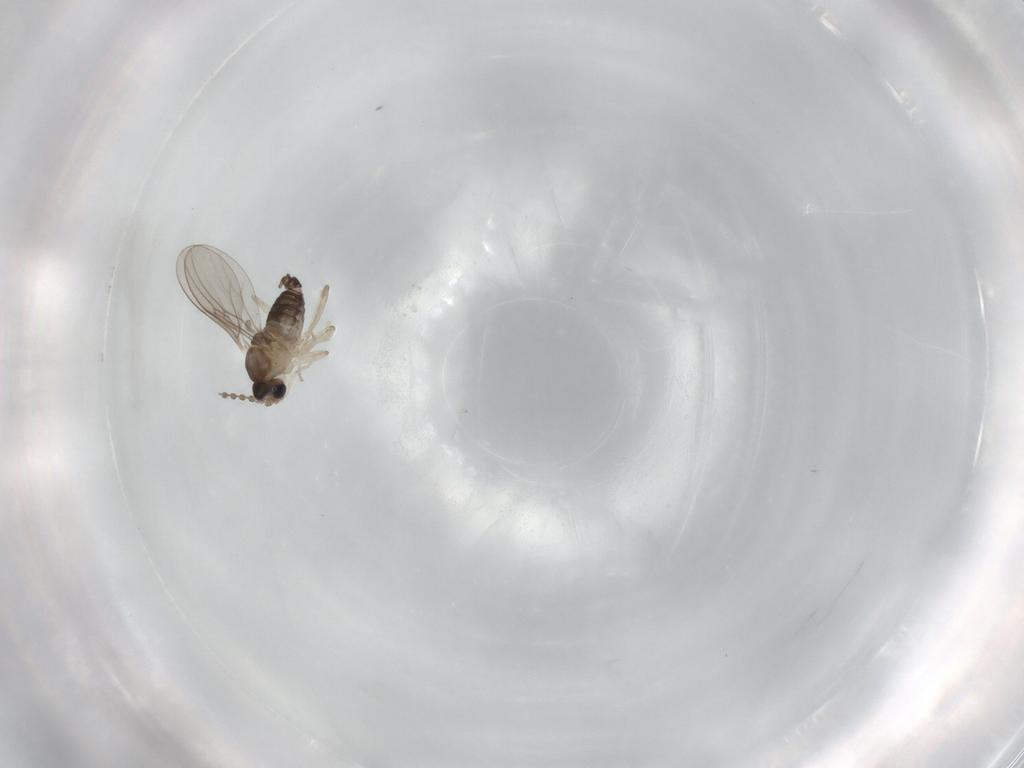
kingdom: Animalia
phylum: Arthropoda
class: Insecta
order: Diptera
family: Cecidomyiidae
